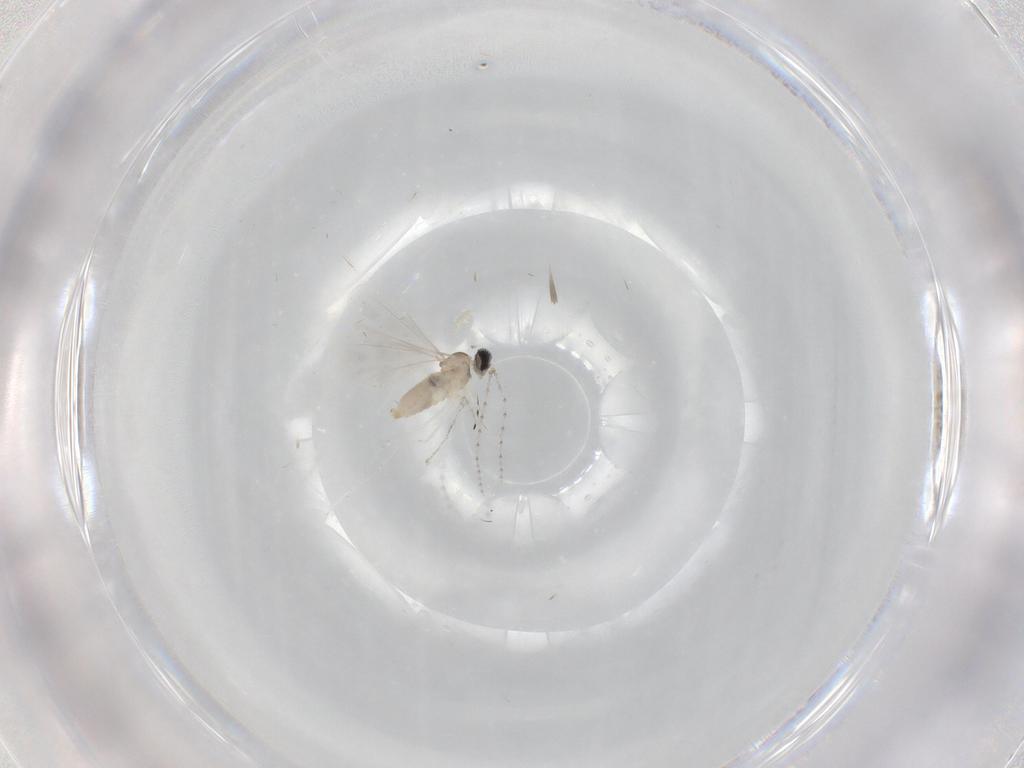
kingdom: Animalia
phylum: Arthropoda
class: Insecta
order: Diptera
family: Cecidomyiidae
